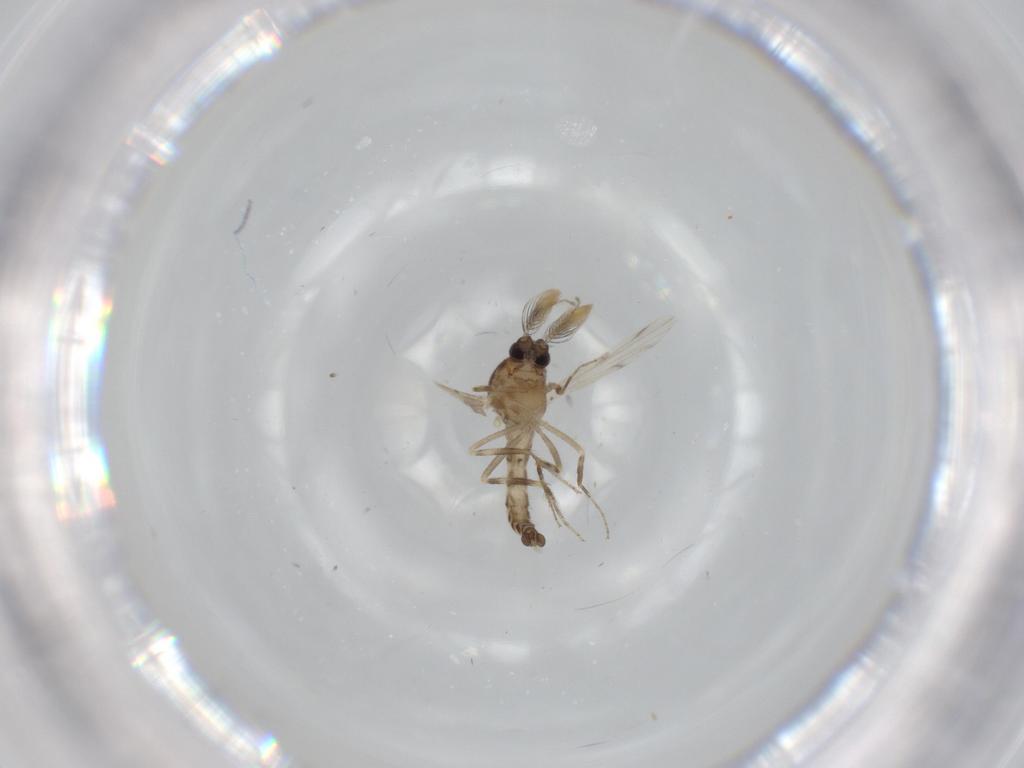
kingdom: Animalia
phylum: Arthropoda
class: Insecta
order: Diptera
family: Ceratopogonidae
